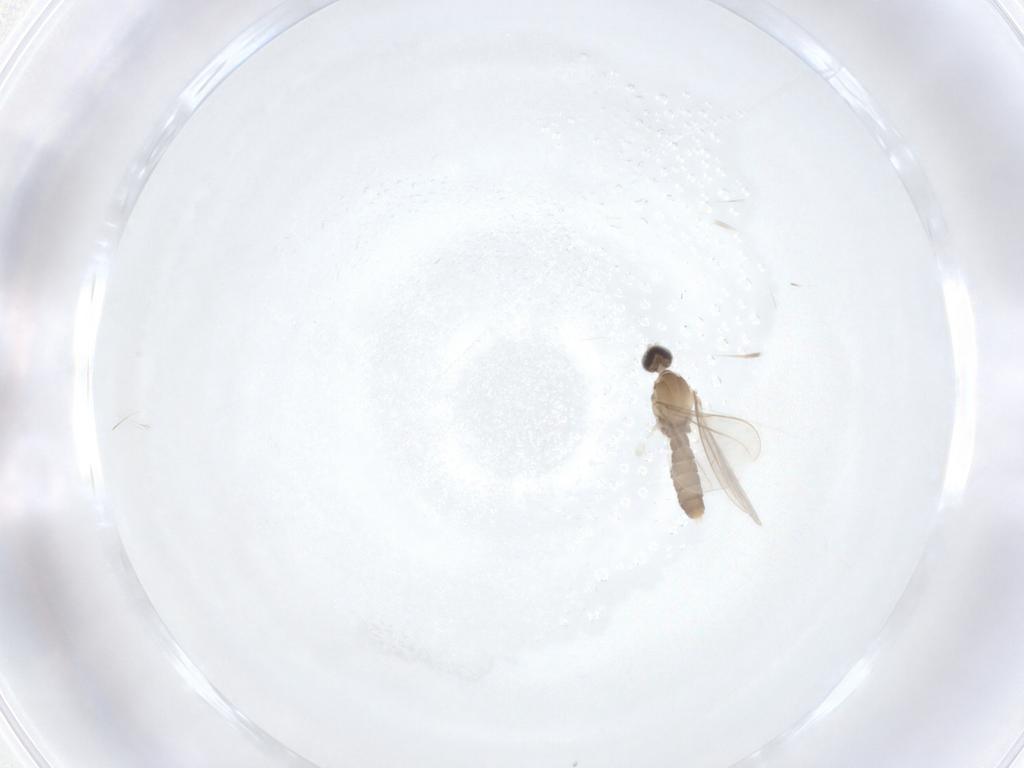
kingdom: Animalia
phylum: Arthropoda
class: Insecta
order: Diptera
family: Cecidomyiidae
